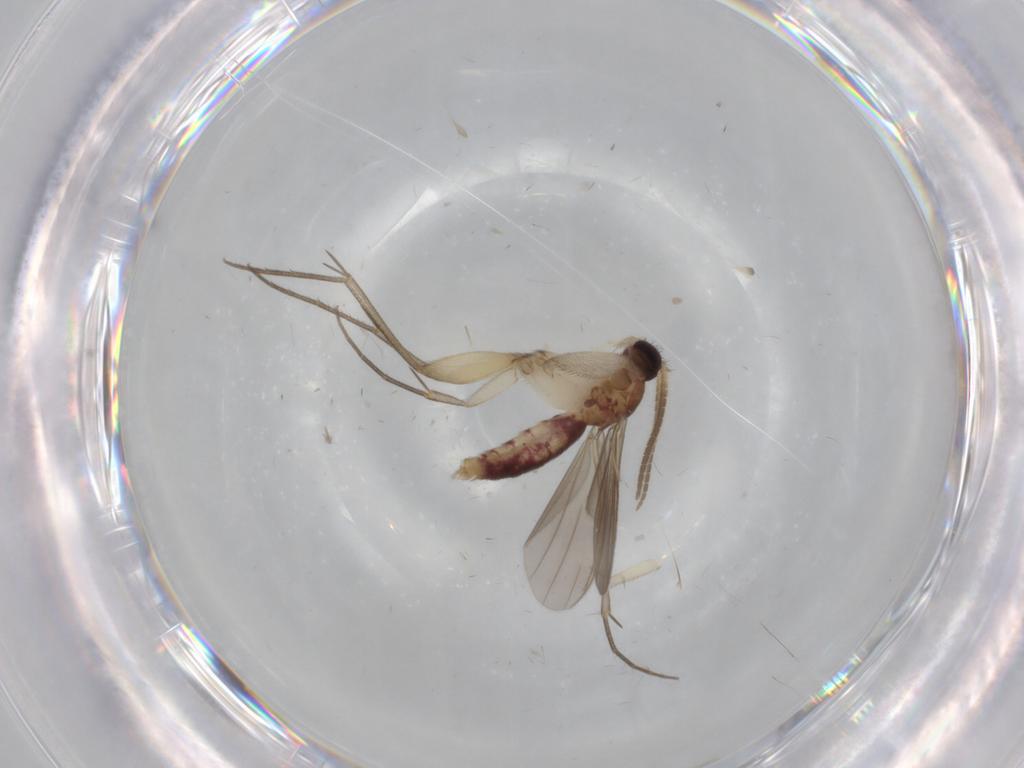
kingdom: Animalia
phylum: Arthropoda
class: Insecta
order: Diptera
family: Mycetophilidae
